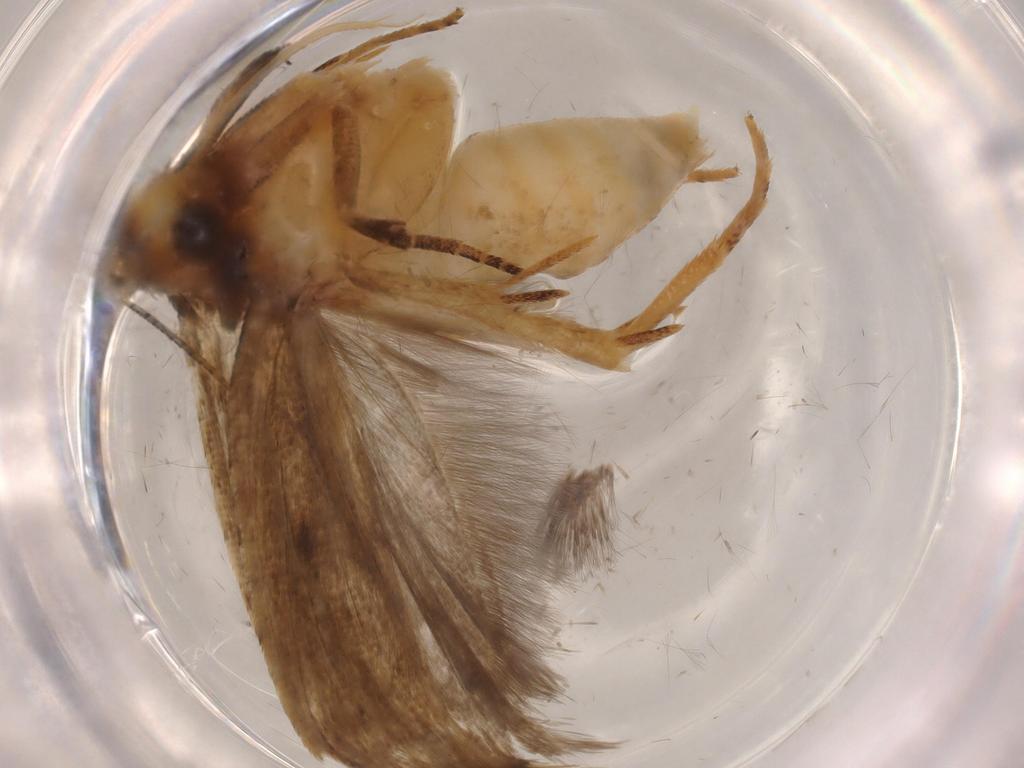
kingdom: Animalia
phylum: Arthropoda
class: Insecta
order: Lepidoptera
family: Gelechiidae
